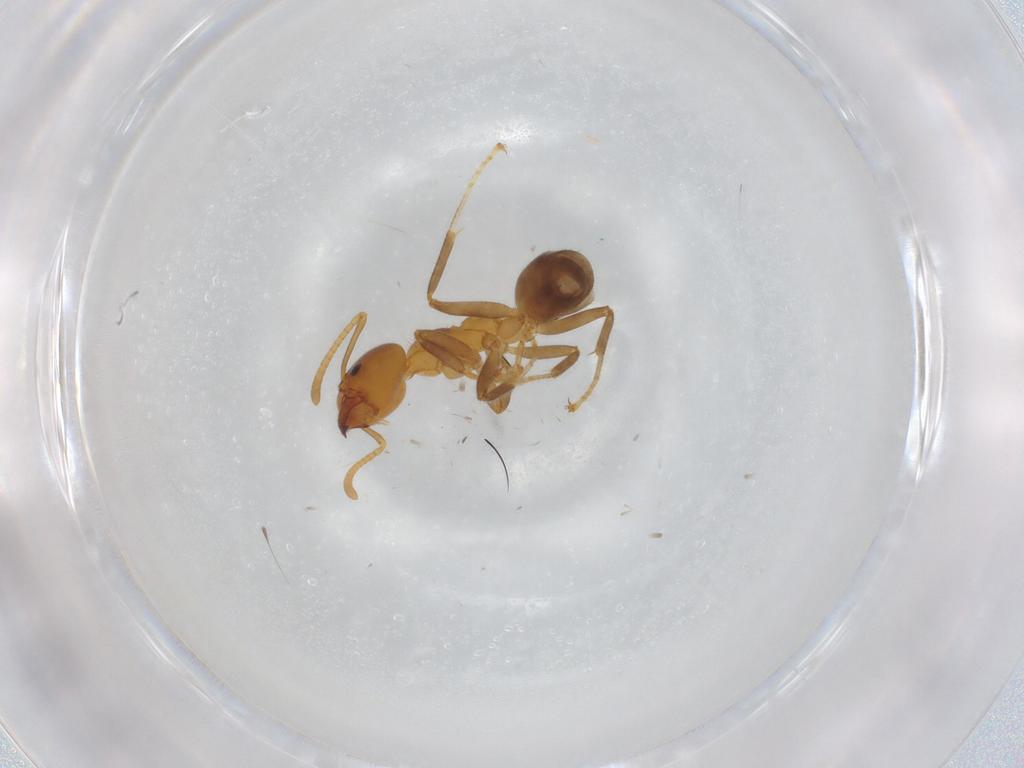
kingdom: Animalia
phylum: Arthropoda
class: Insecta
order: Hymenoptera
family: Formicidae
